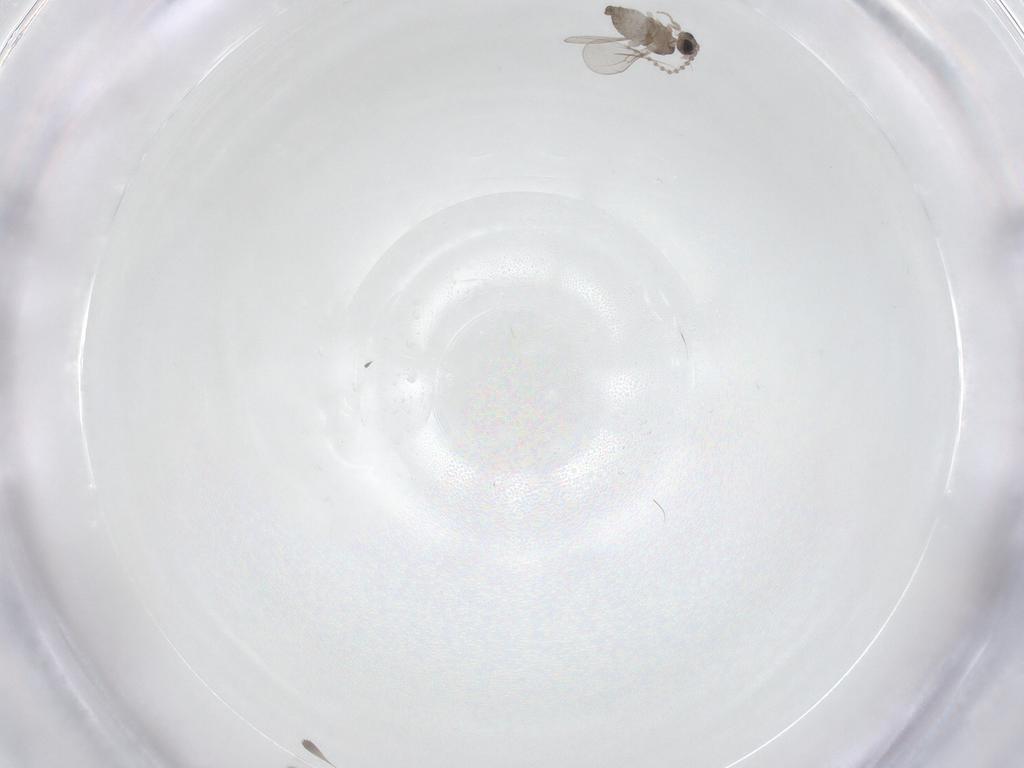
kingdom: Animalia
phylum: Arthropoda
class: Insecta
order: Diptera
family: Cecidomyiidae
